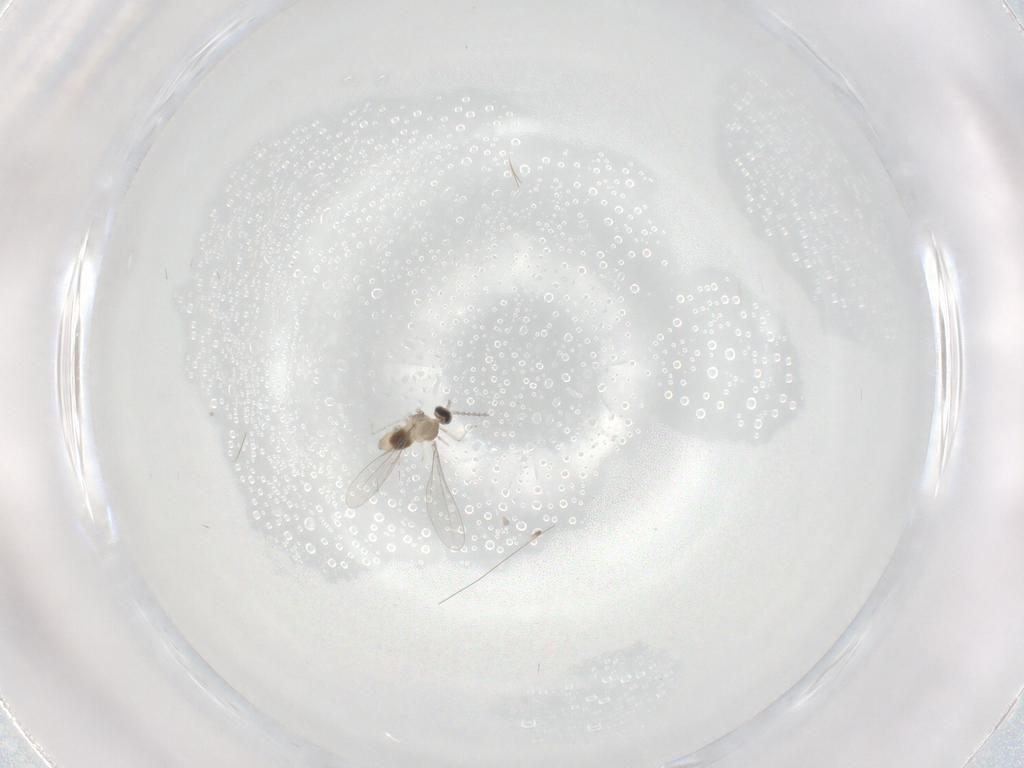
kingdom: Animalia
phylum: Arthropoda
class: Insecta
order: Diptera
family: Cecidomyiidae
